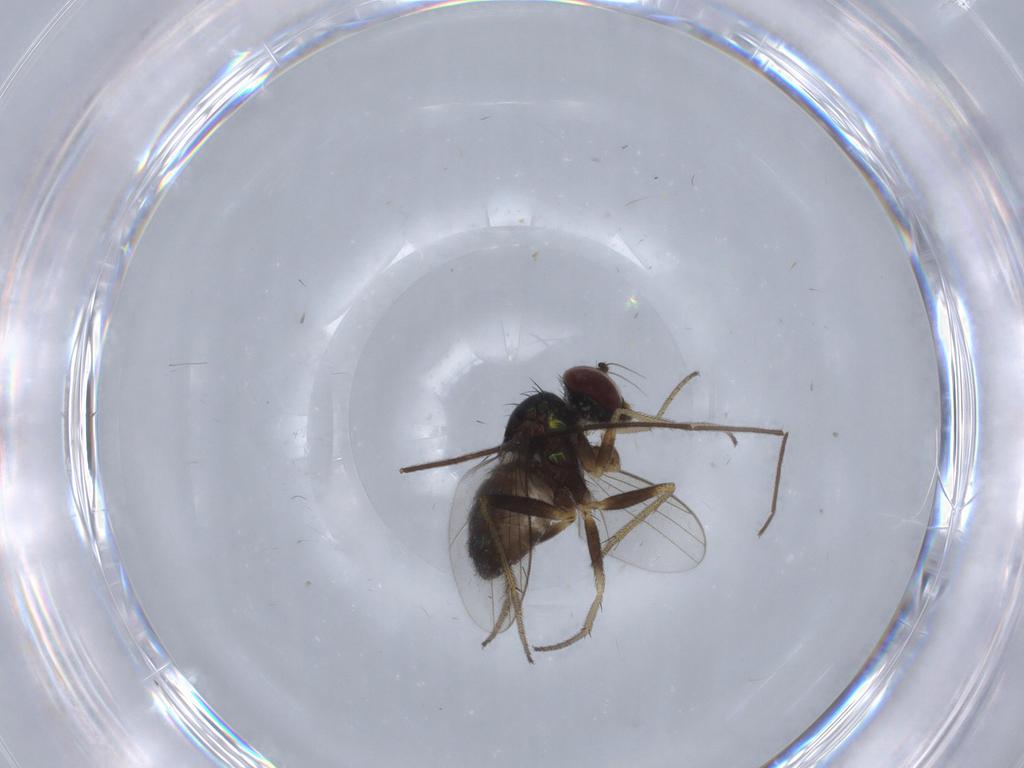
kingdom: Animalia
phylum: Arthropoda
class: Insecta
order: Diptera
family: Chironomidae
